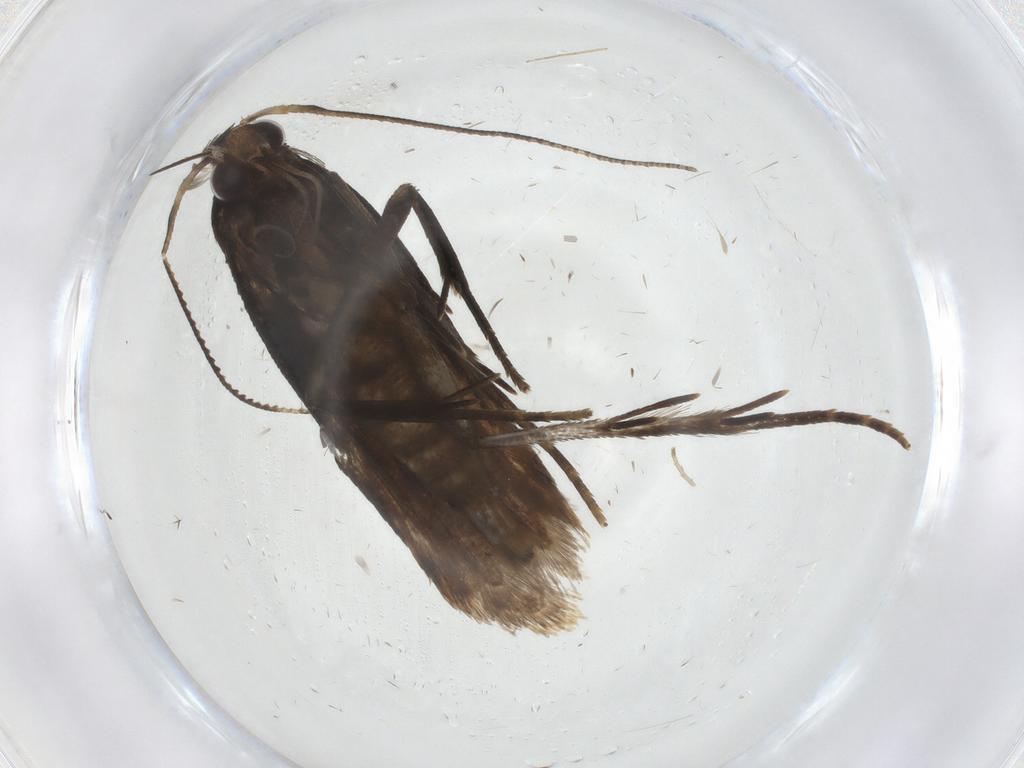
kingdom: Animalia
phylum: Arthropoda
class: Insecta
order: Lepidoptera
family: Gelechiidae
